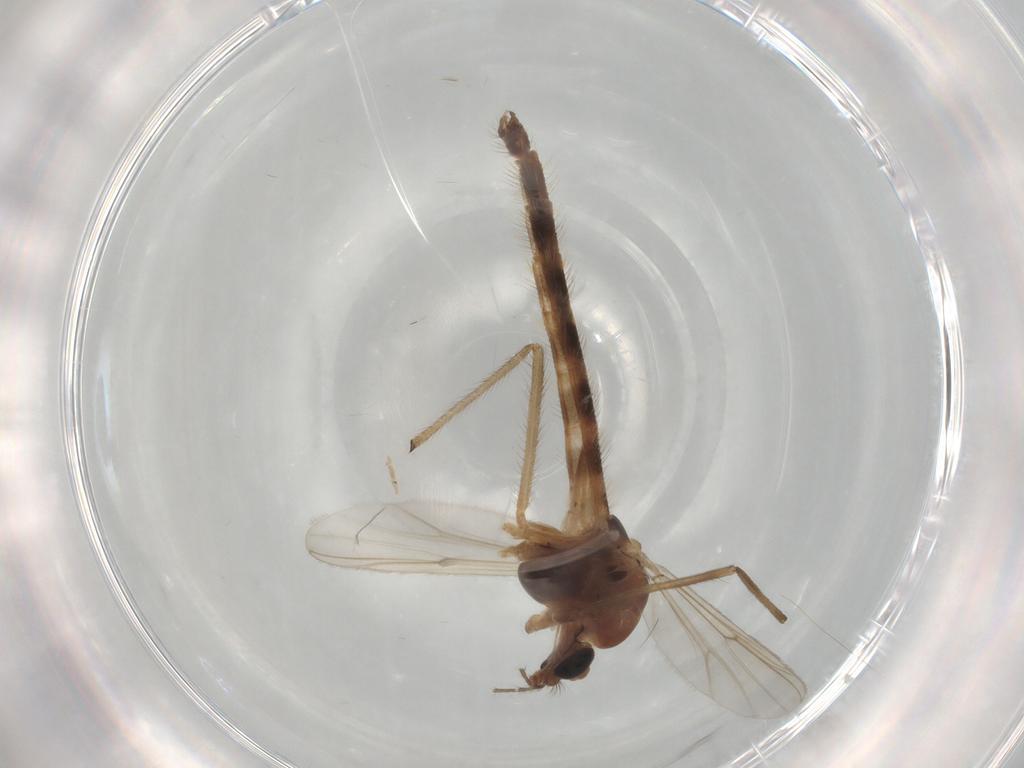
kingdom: Animalia
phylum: Arthropoda
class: Insecta
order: Diptera
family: Chironomidae
